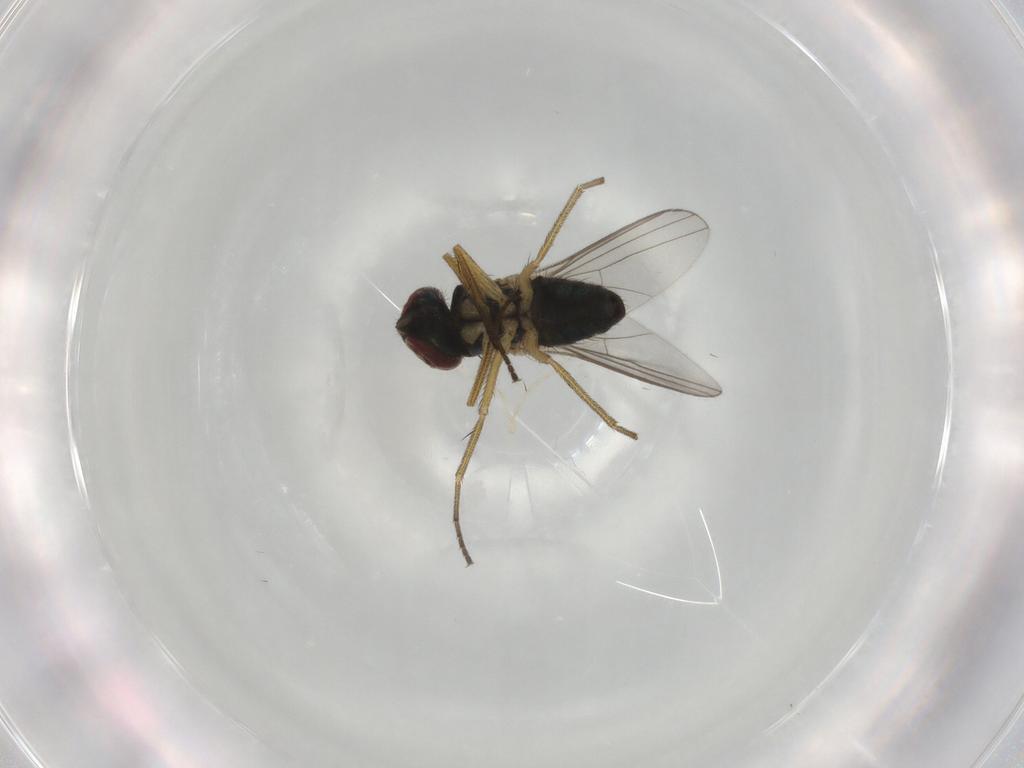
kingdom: Animalia
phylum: Arthropoda
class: Insecta
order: Diptera
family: Dolichopodidae
